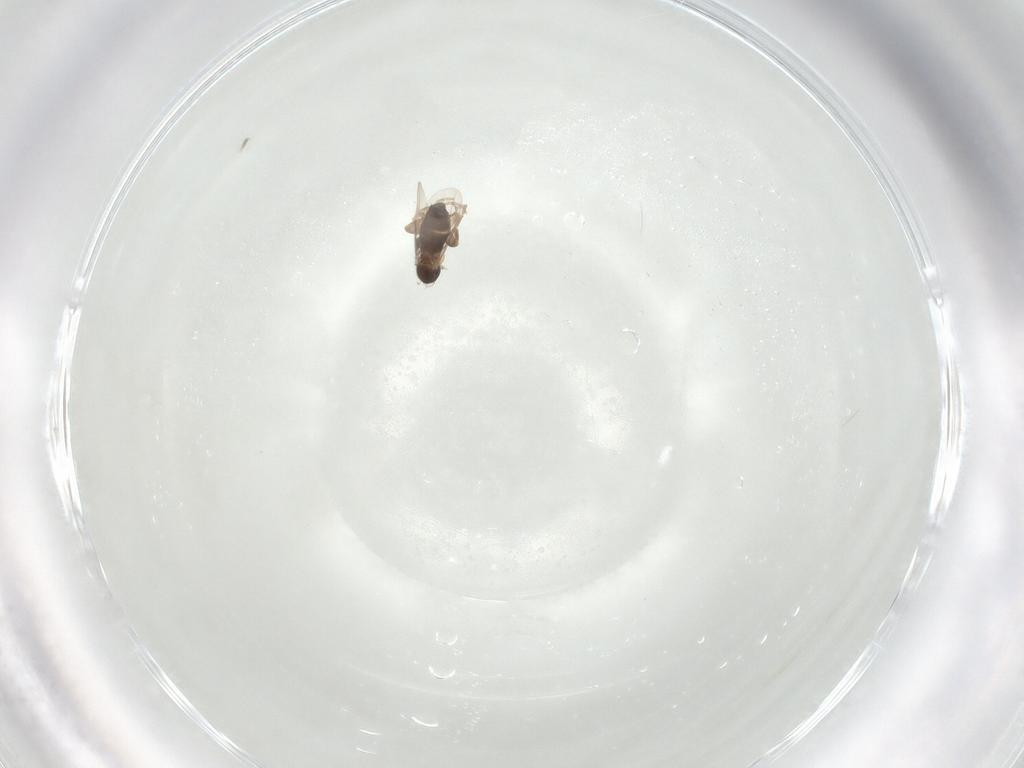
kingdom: Animalia
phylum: Arthropoda
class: Insecta
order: Diptera
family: Phoridae
